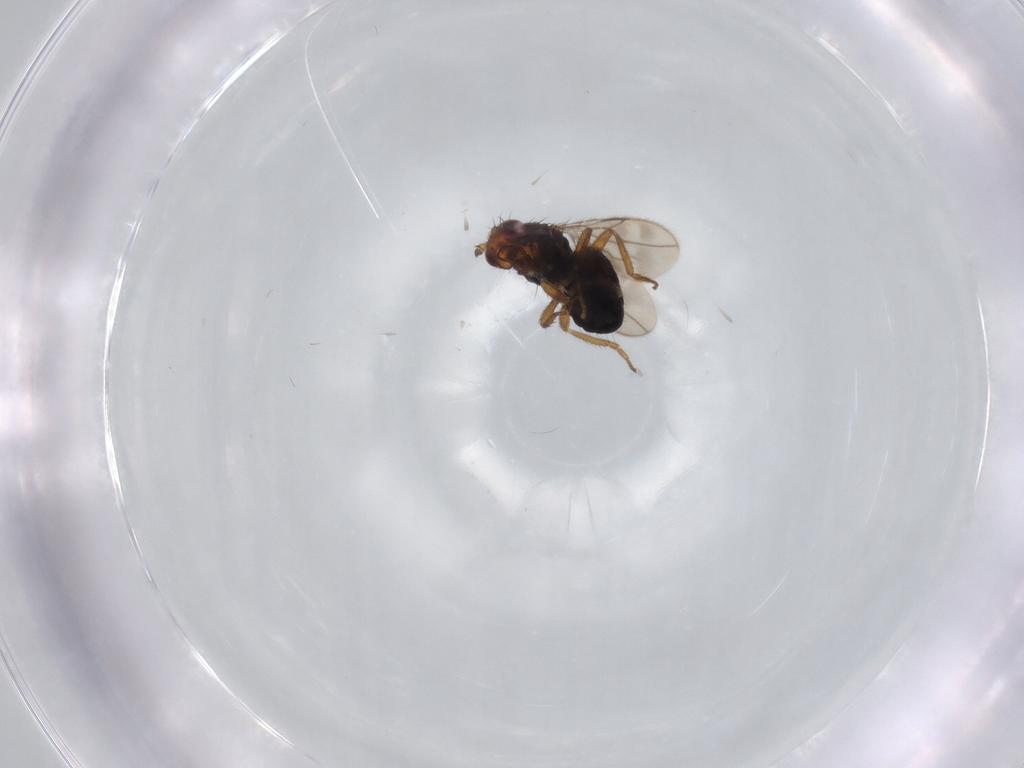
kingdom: Animalia
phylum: Arthropoda
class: Insecta
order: Diptera
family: Sphaeroceridae
